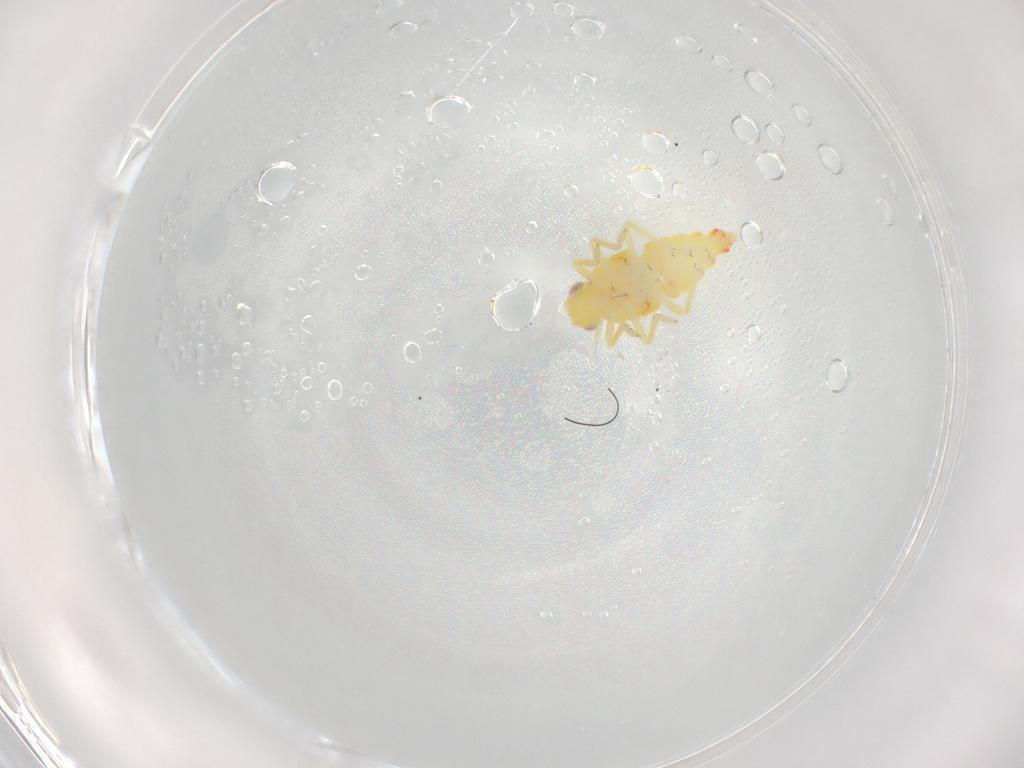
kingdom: Animalia
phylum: Arthropoda
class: Insecta
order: Hemiptera
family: Tropiduchidae
